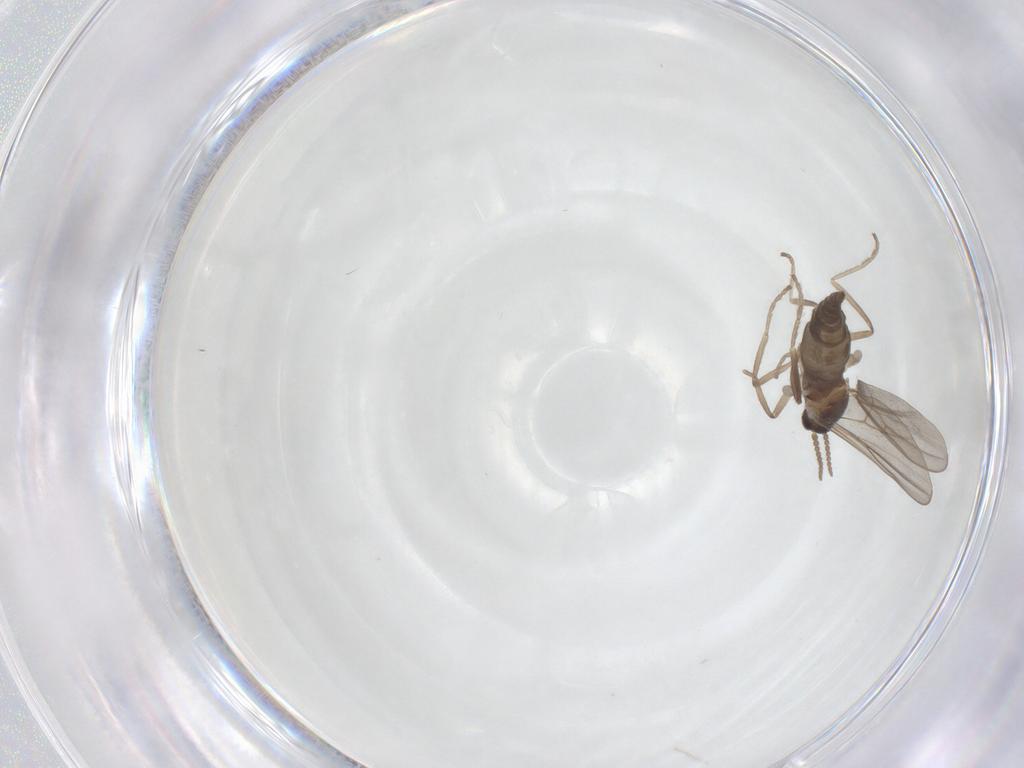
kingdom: Animalia
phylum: Arthropoda
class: Insecta
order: Diptera
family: Cecidomyiidae
